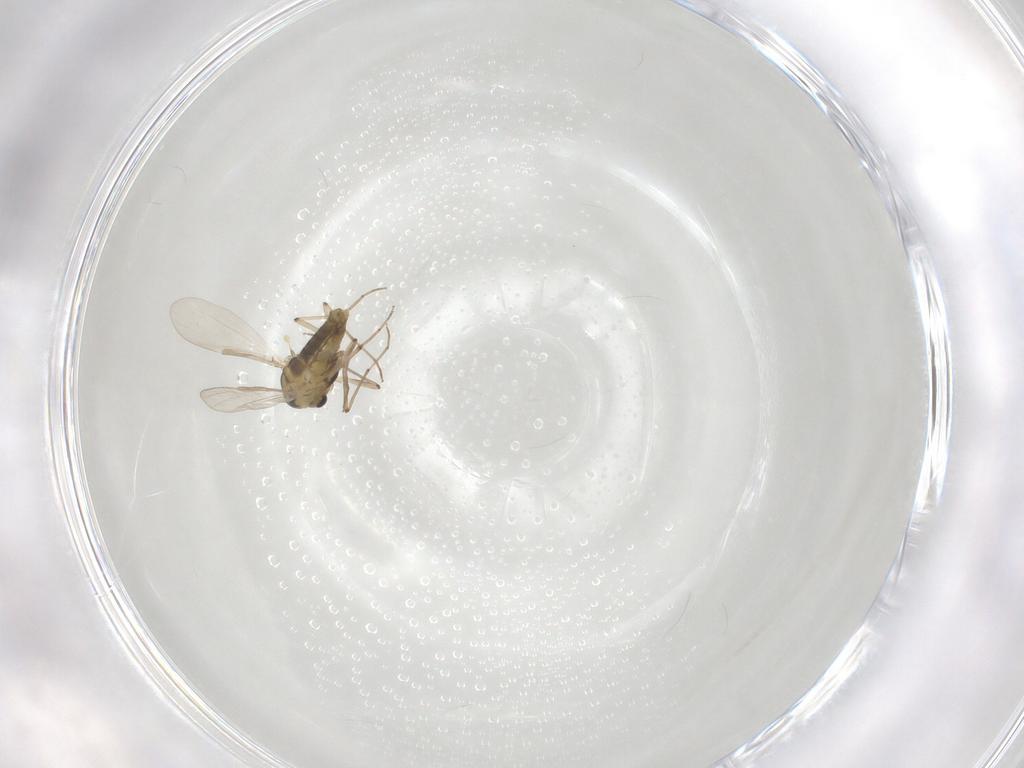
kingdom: Animalia
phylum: Arthropoda
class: Insecta
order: Diptera
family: Chironomidae
